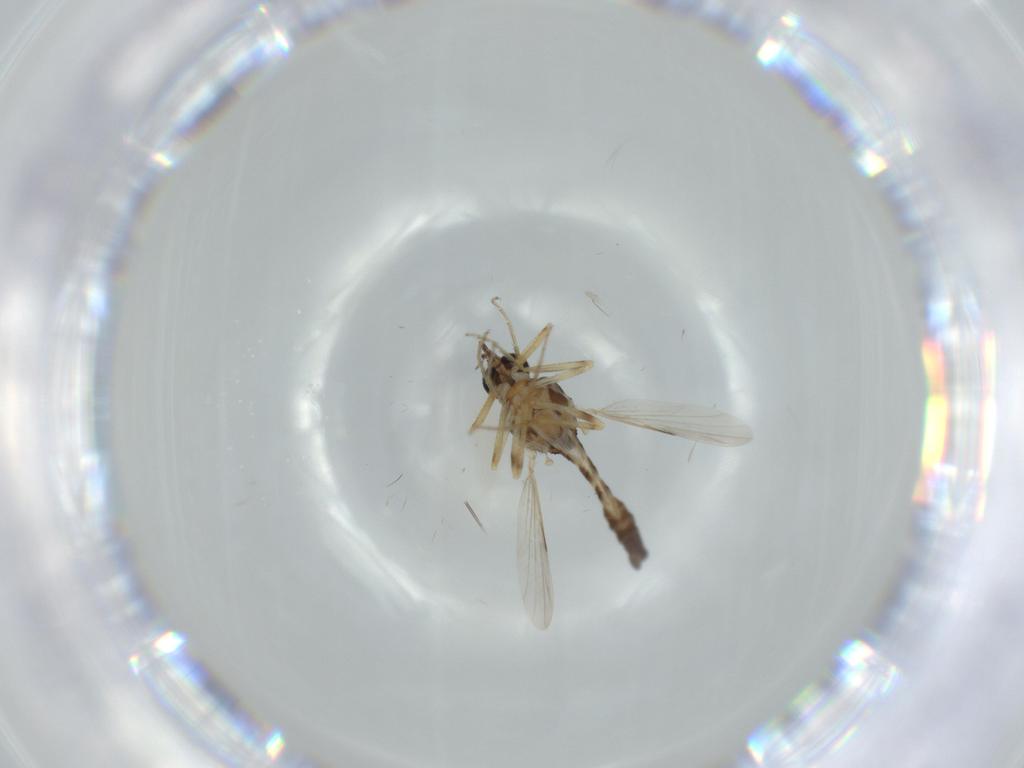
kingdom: Animalia
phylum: Arthropoda
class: Insecta
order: Diptera
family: Ceratopogonidae
